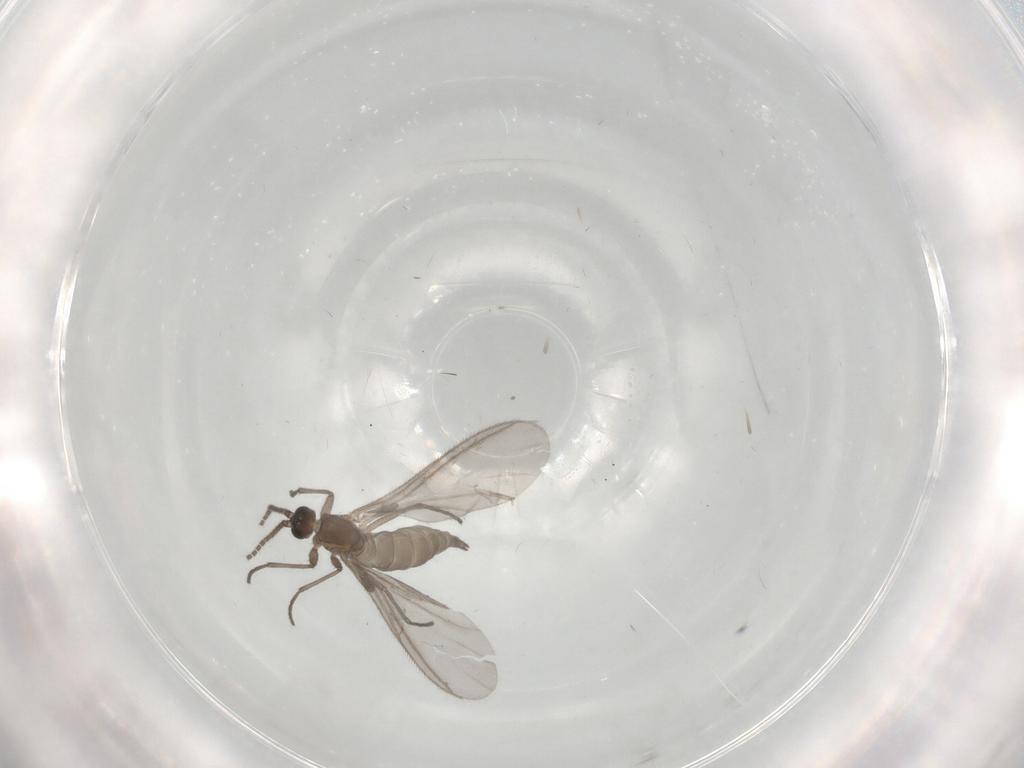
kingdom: Animalia
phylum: Arthropoda
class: Insecta
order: Diptera
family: Sciaridae
